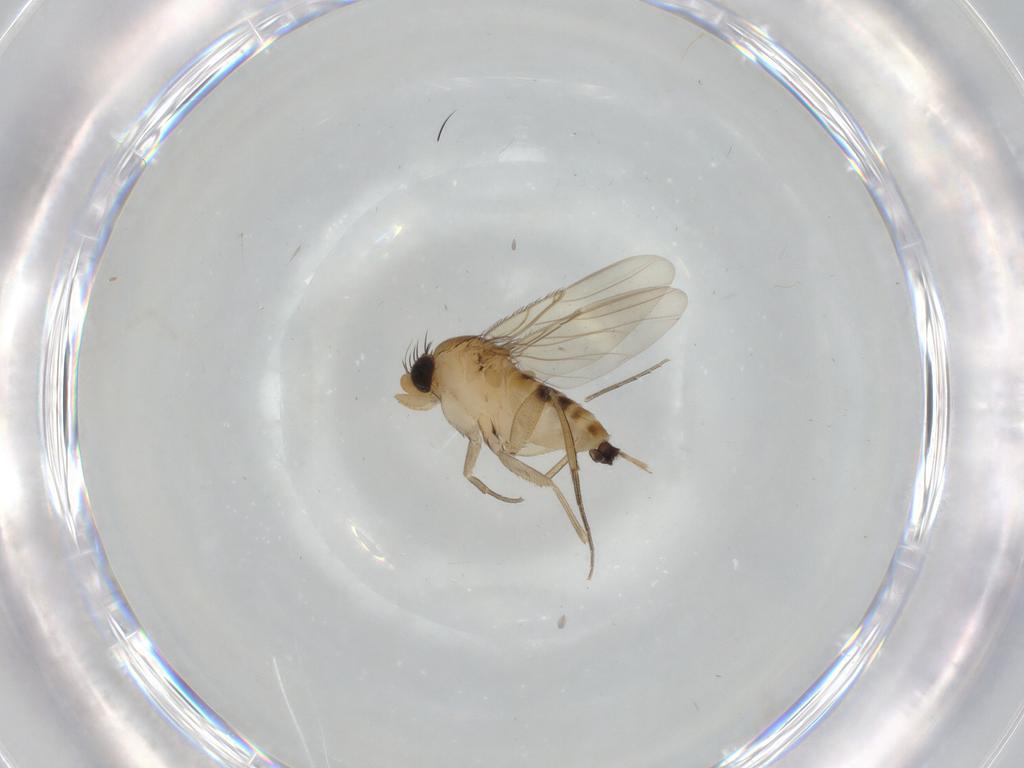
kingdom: Animalia
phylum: Arthropoda
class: Insecta
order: Diptera
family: Phoridae
